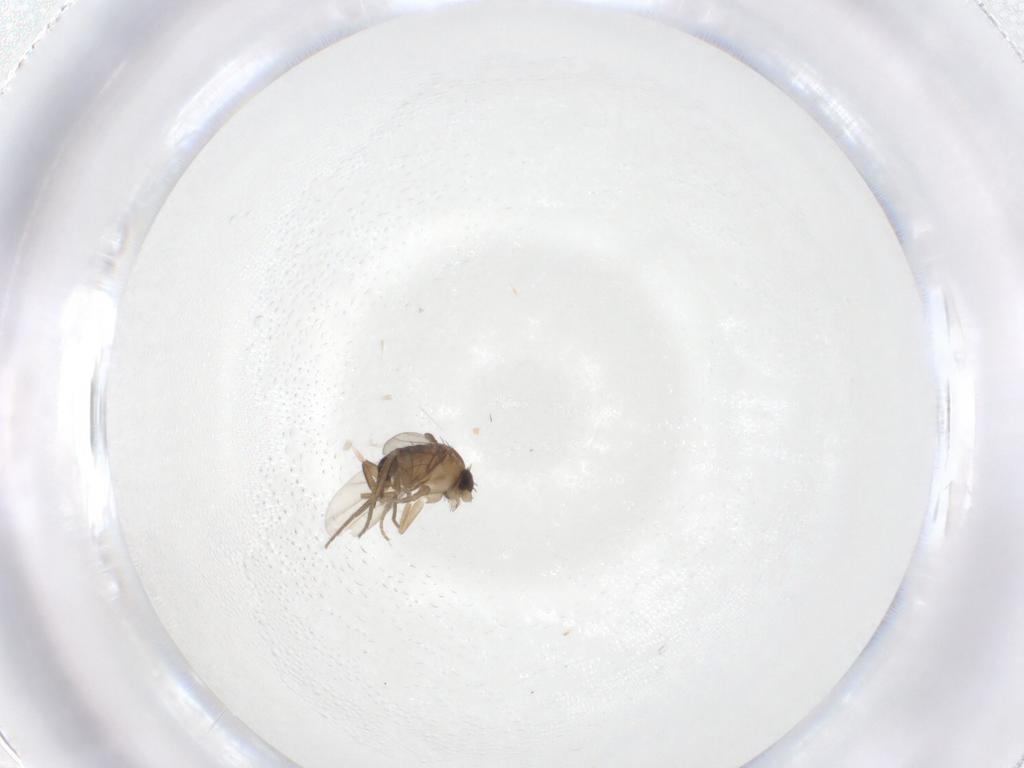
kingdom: Animalia
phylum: Arthropoda
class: Insecta
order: Diptera
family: Phoridae
